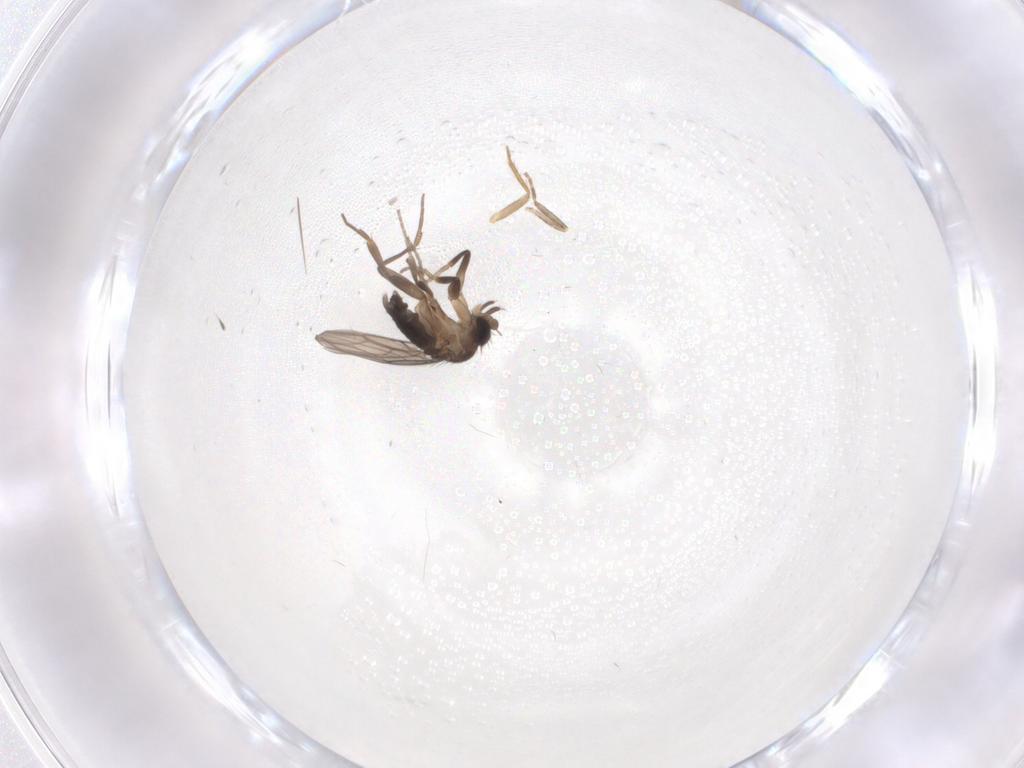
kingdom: Animalia
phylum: Arthropoda
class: Insecta
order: Diptera
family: Phoridae
